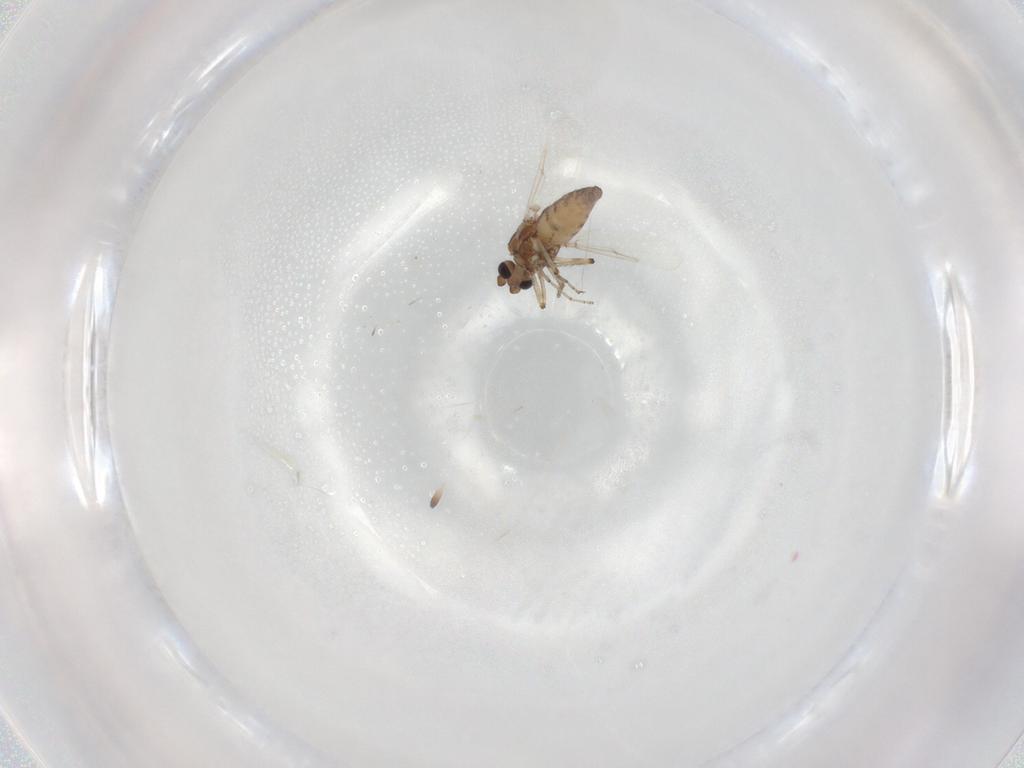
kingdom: Animalia
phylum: Arthropoda
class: Insecta
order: Diptera
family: Ceratopogonidae
